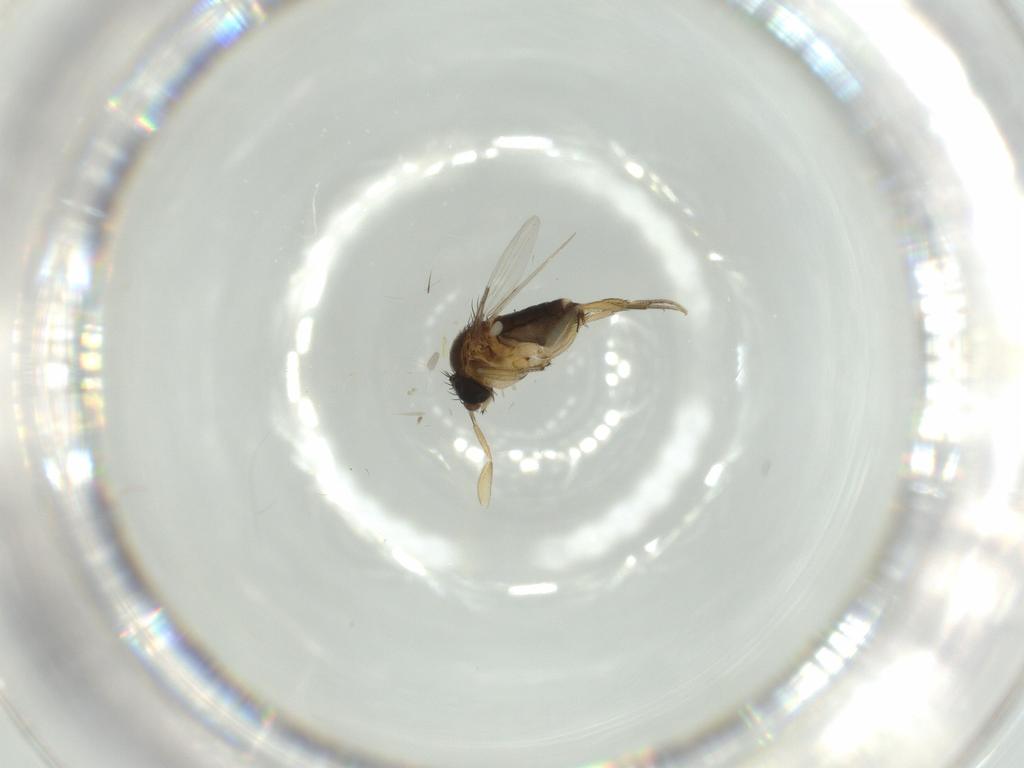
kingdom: Animalia
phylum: Arthropoda
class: Insecta
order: Diptera
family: Phoridae
